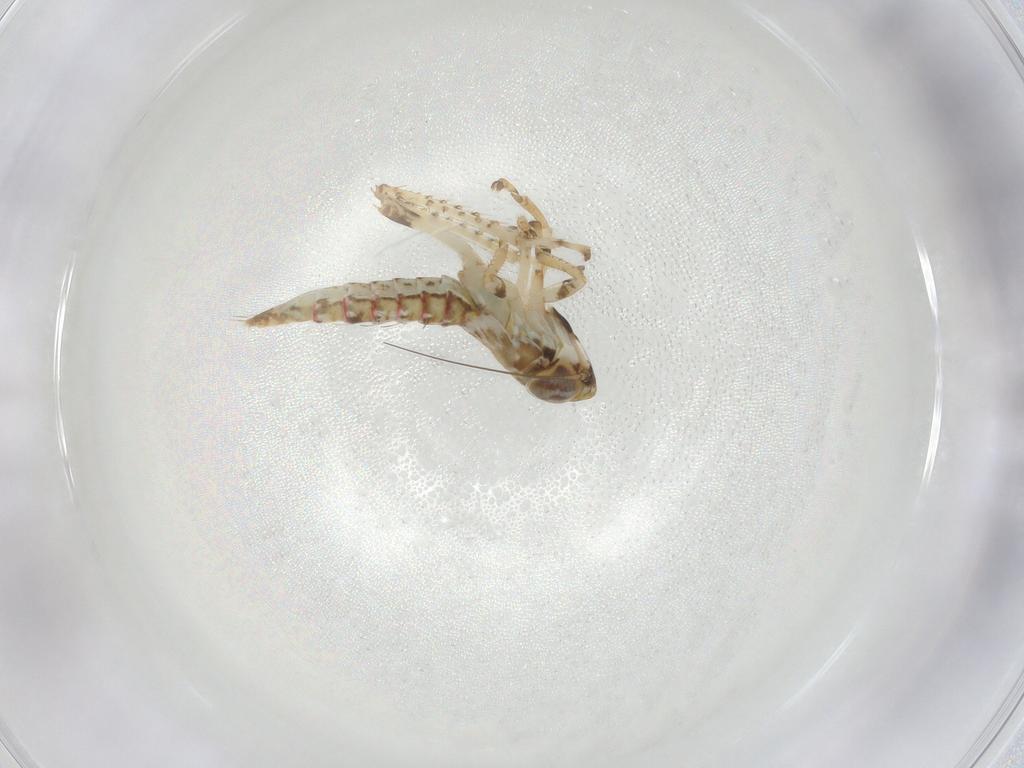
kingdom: Animalia
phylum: Arthropoda
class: Insecta
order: Hemiptera
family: Cicadellidae
